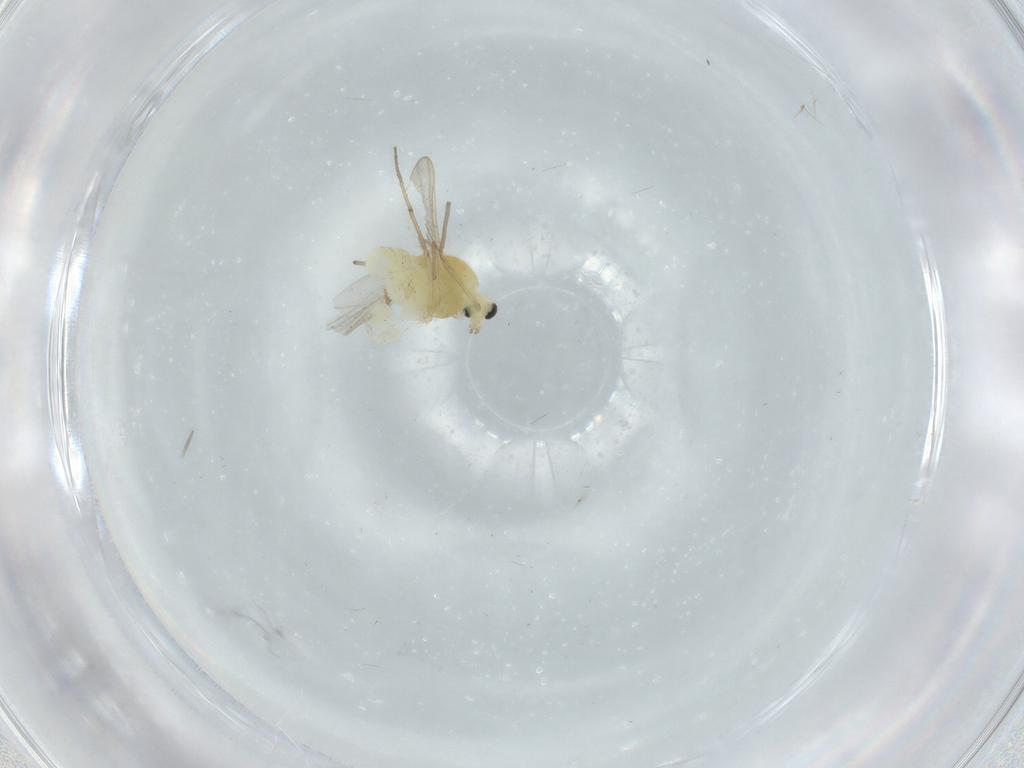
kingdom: Animalia
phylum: Arthropoda
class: Insecta
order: Diptera
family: Chironomidae
